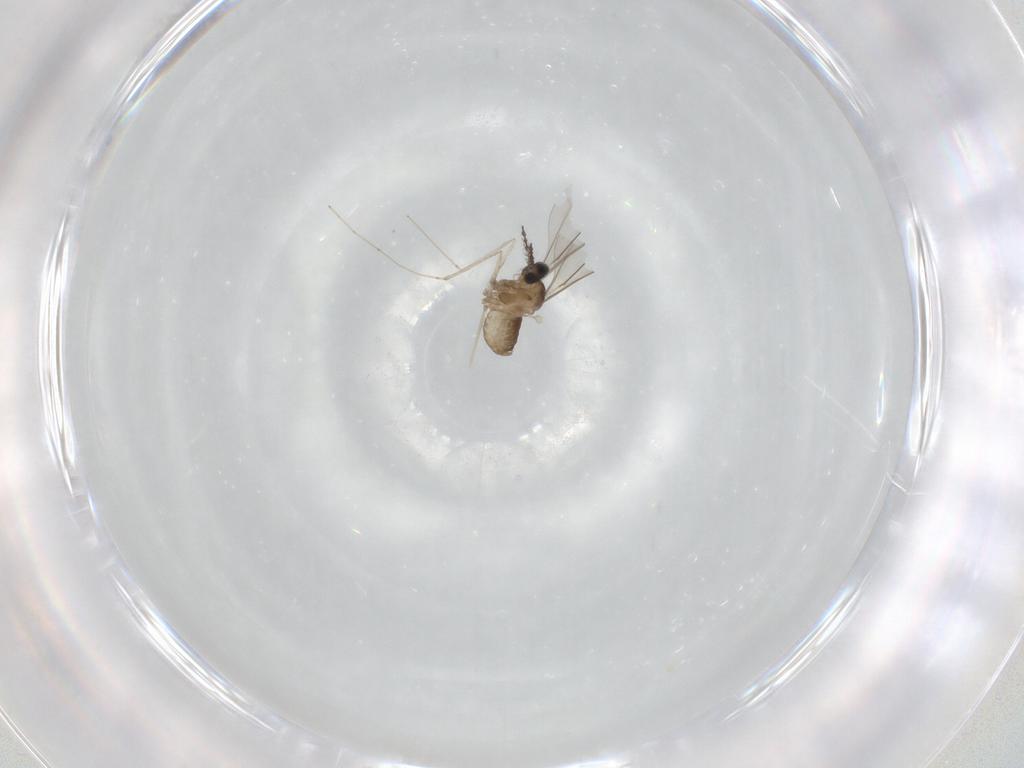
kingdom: Animalia
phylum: Arthropoda
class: Insecta
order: Diptera
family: Cecidomyiidae
